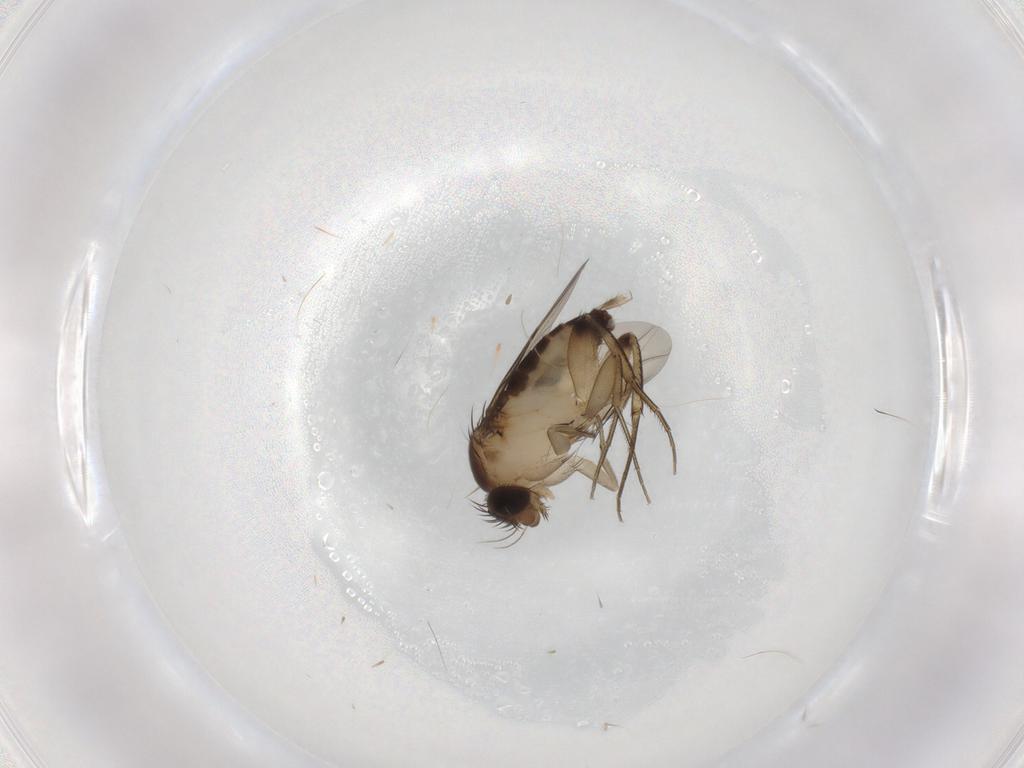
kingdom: Animalia
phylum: Arthropoda
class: Insecta
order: Diptera
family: Phoridae
